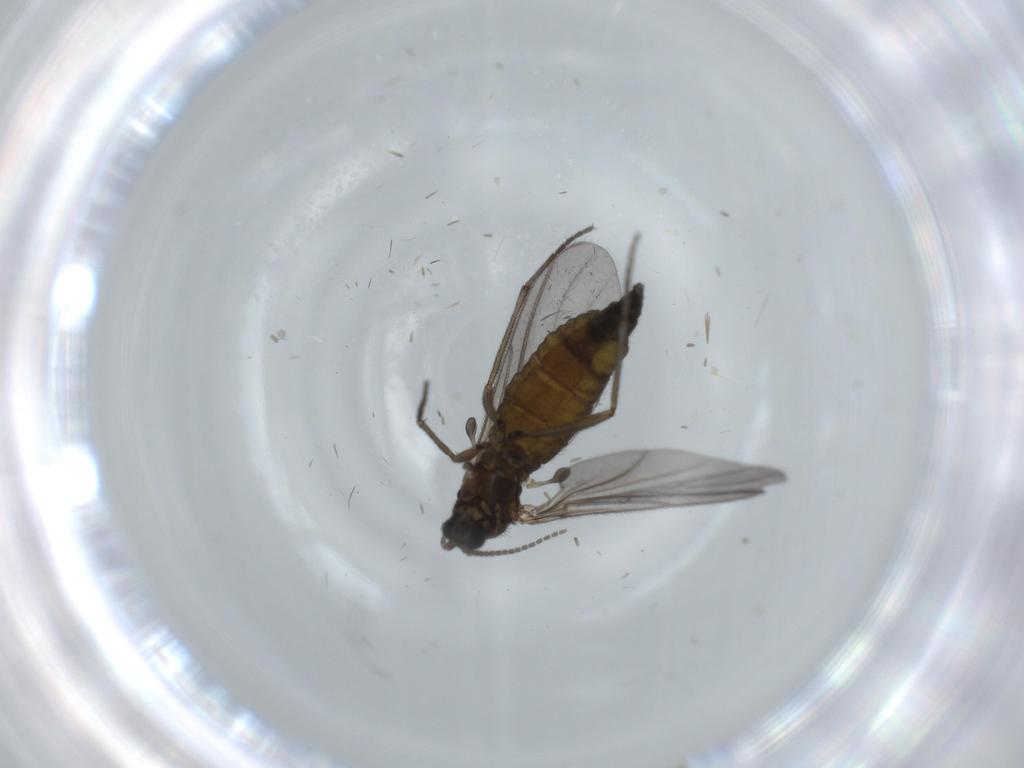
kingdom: Animalia
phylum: Arthropoda
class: Insecta
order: Diptera
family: Sciaridae
